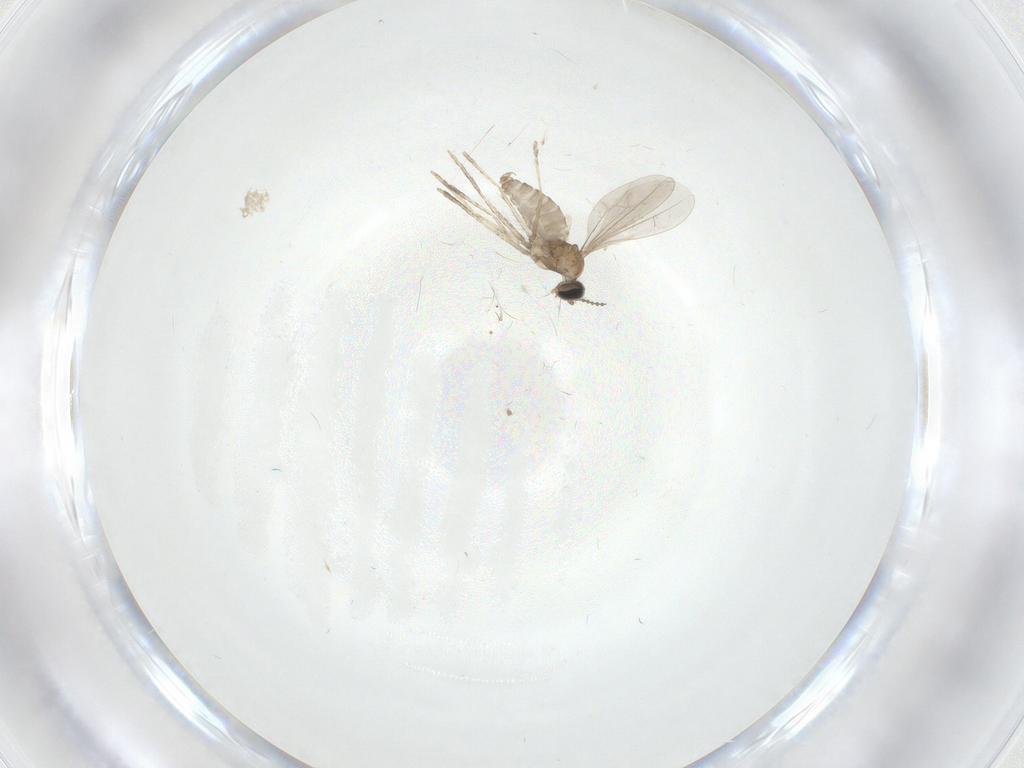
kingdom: Animalia
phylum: Arthropoda
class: Insecta
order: Diptera
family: Cecidomyiidae
